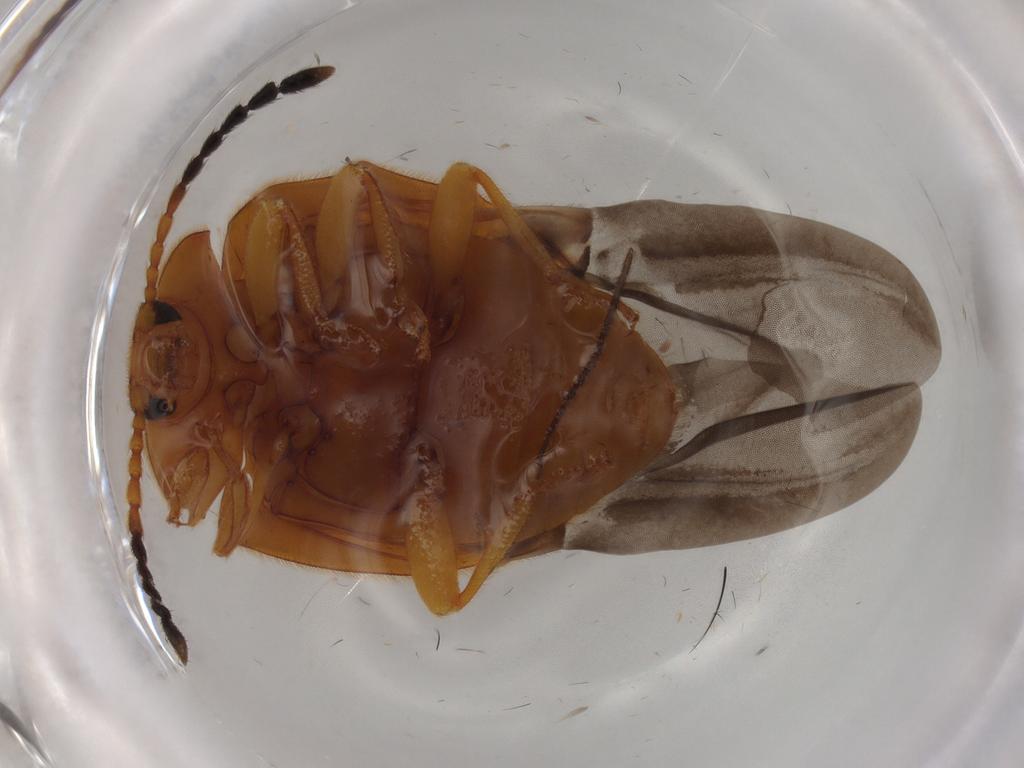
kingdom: Animalia
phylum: Arthropoda
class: Insecta
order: Coleoptera
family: Endomychidae
